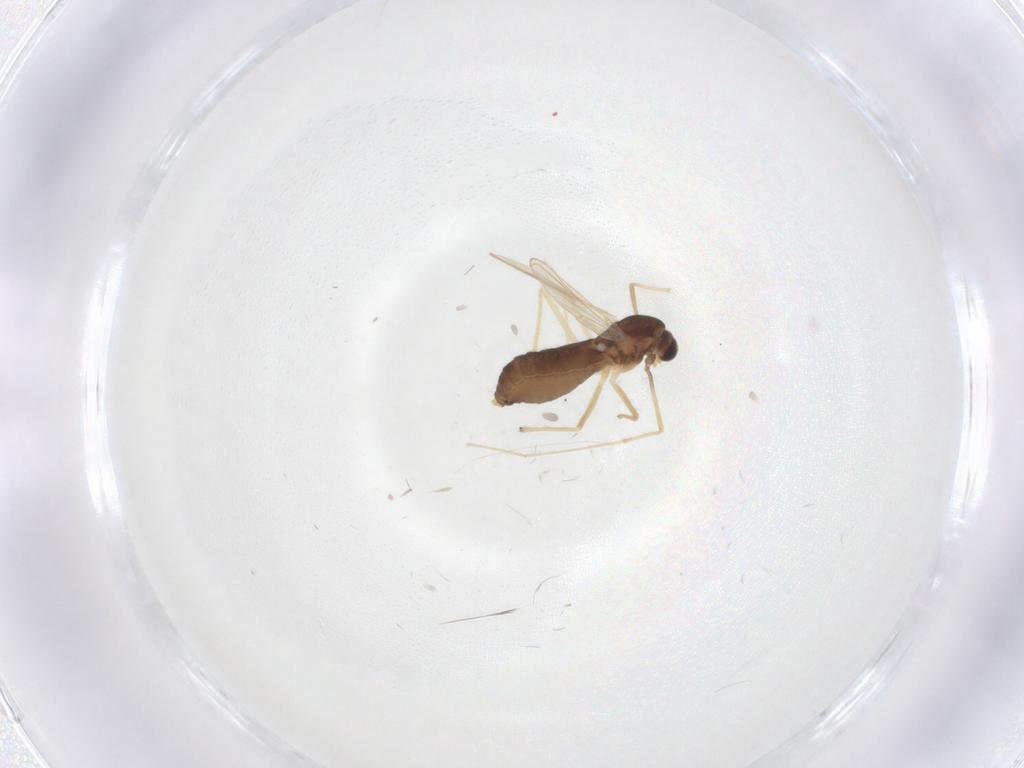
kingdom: Animalia
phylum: Arthropoda
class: Insecta
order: Diptera
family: Chironomidae
